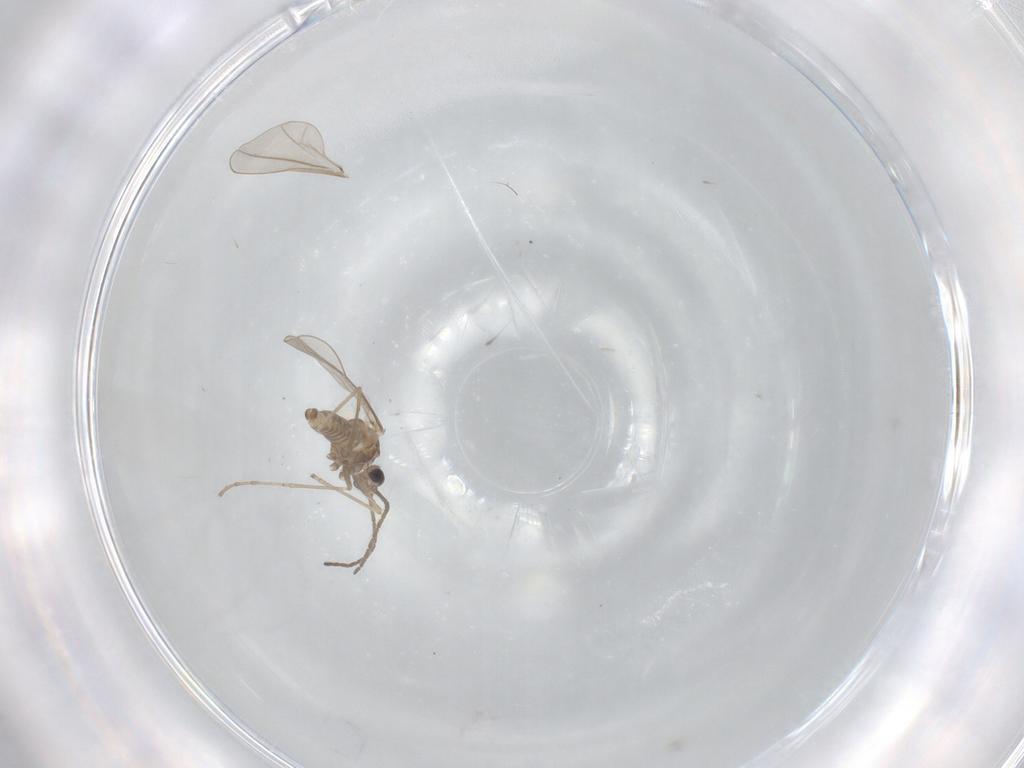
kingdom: Animalia
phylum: Arthropoda
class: Insecta
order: Diptera
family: Cecidomyiidae
